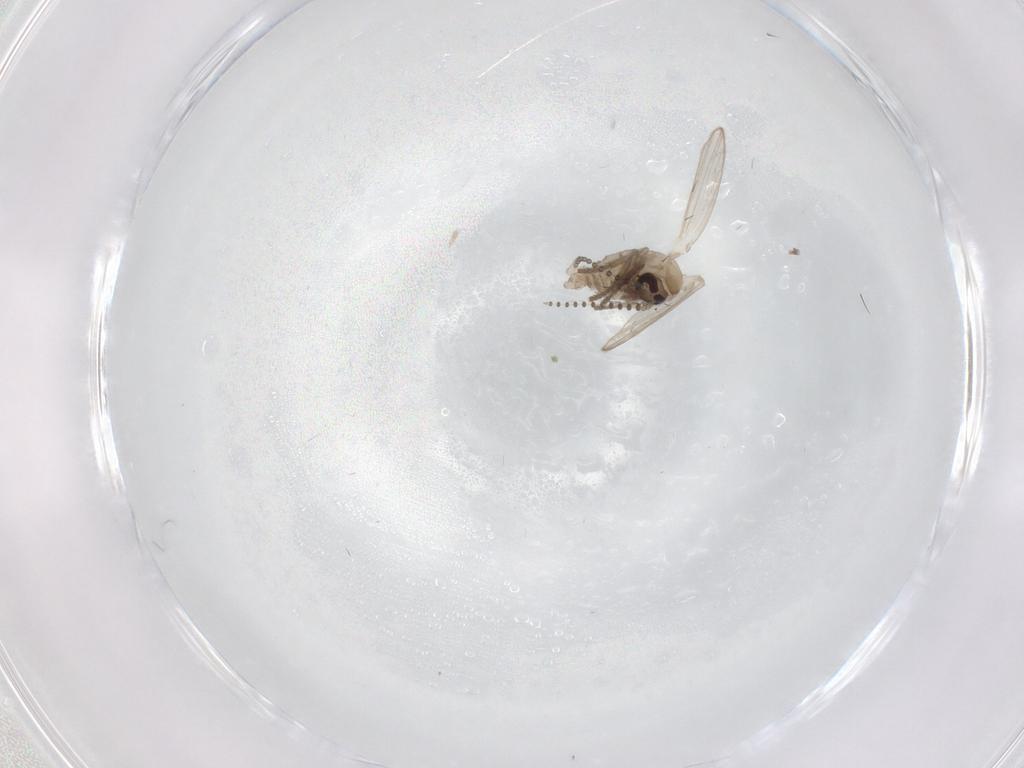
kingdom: Animalia
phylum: Arthropoda
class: Insecta
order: Diptera
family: Psychodidae
